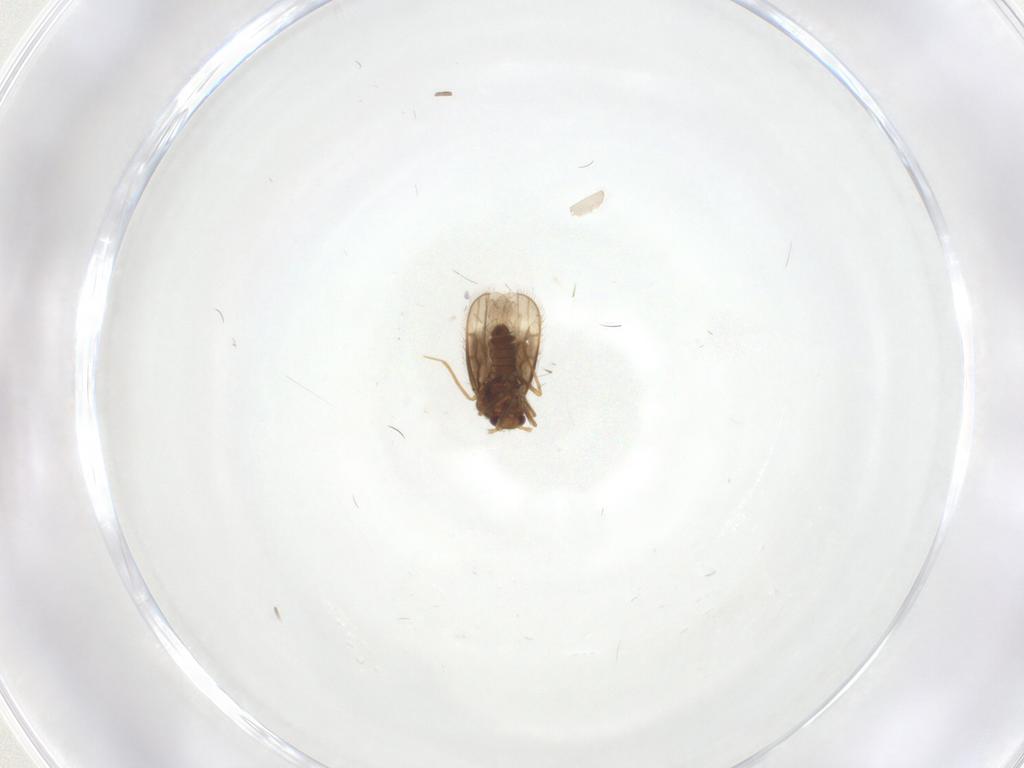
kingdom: Animalia
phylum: Arthropoda
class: Insecta
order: Hemiptera
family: Schizopteridae
